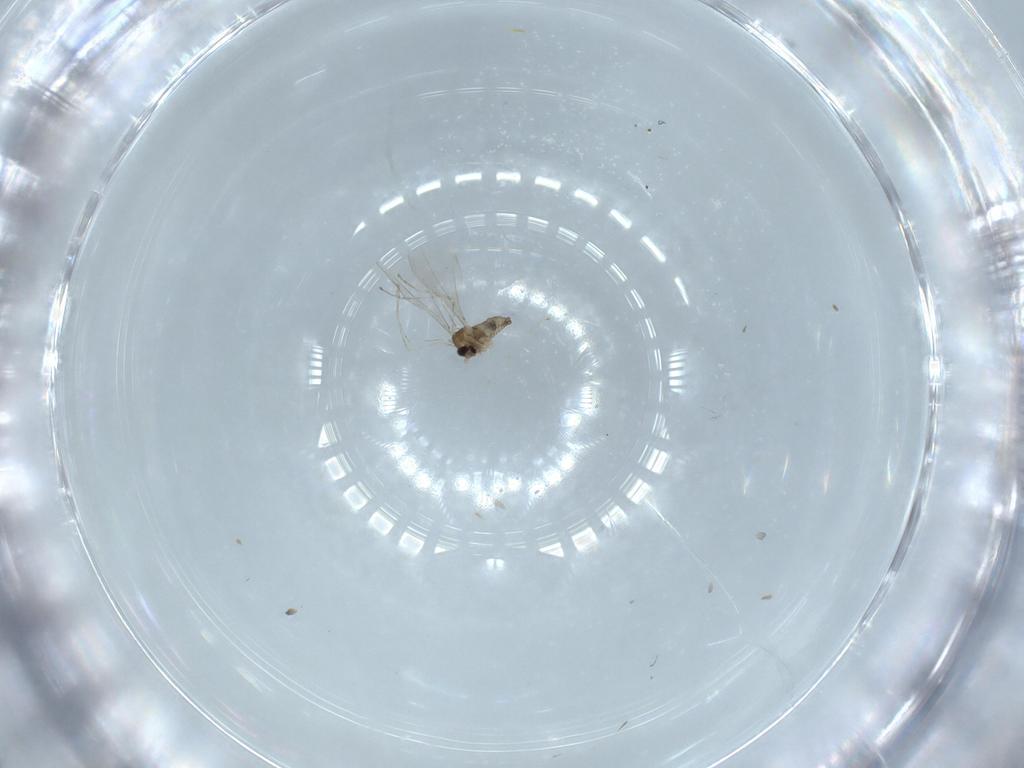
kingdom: Animalia
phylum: Arthropoda
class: Insecta
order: Diptera
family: Cecidomyiidae
